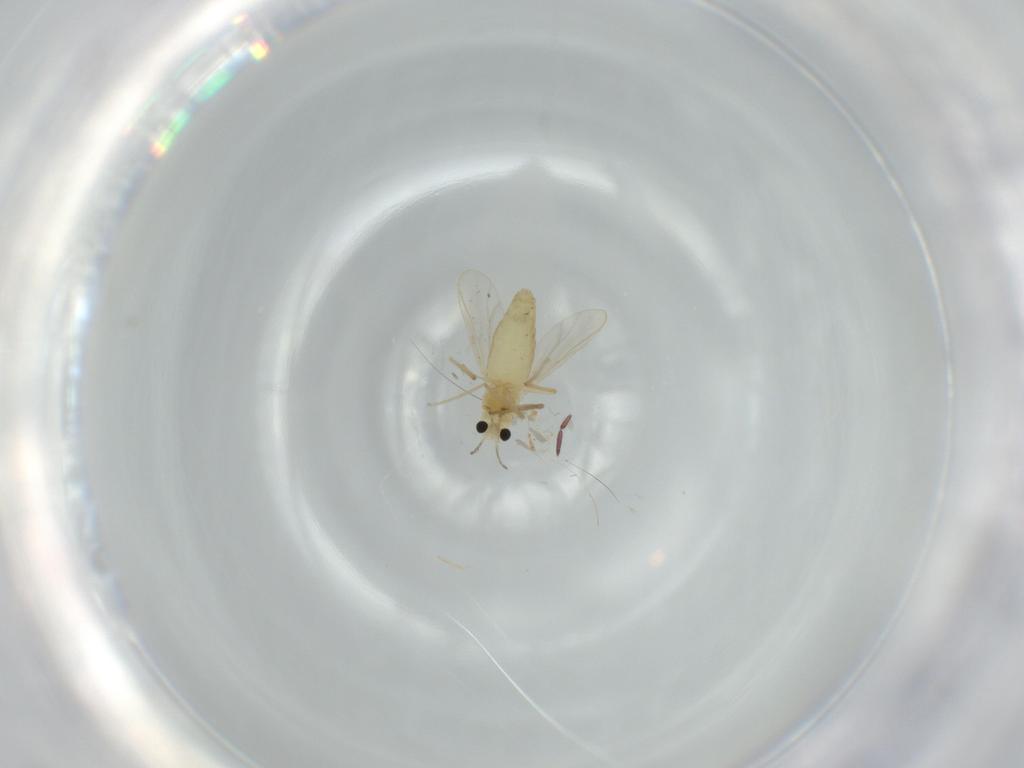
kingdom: Animalia
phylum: Arthropoda
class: Insecta
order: Diptera
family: Chironomidae
